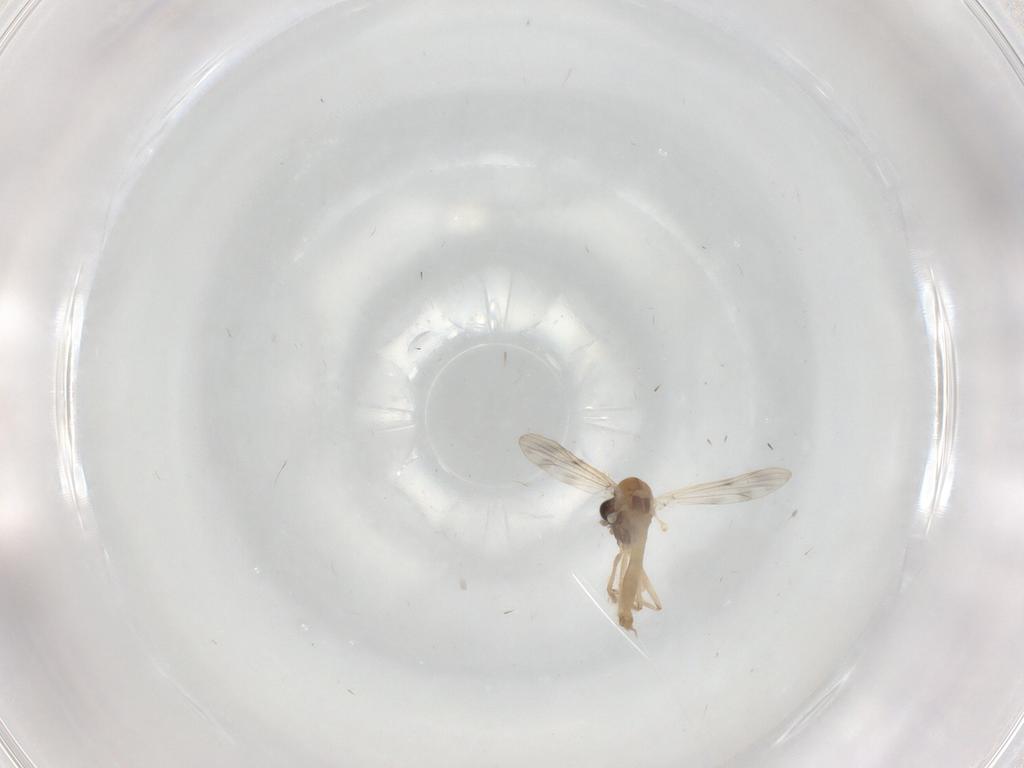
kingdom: Animalia
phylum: Arthropoda
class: Insecta
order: Diptera
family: Chironomidae
